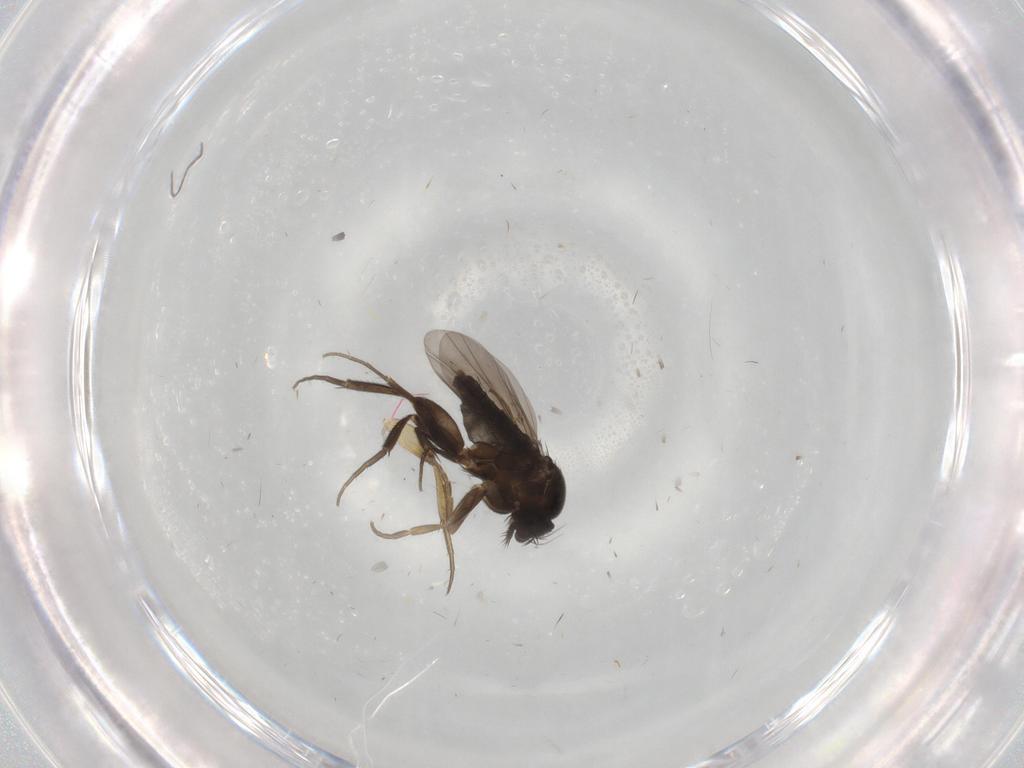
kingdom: Animalia
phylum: Arthropoda
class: Insecta
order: Diptera
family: Phoridae
